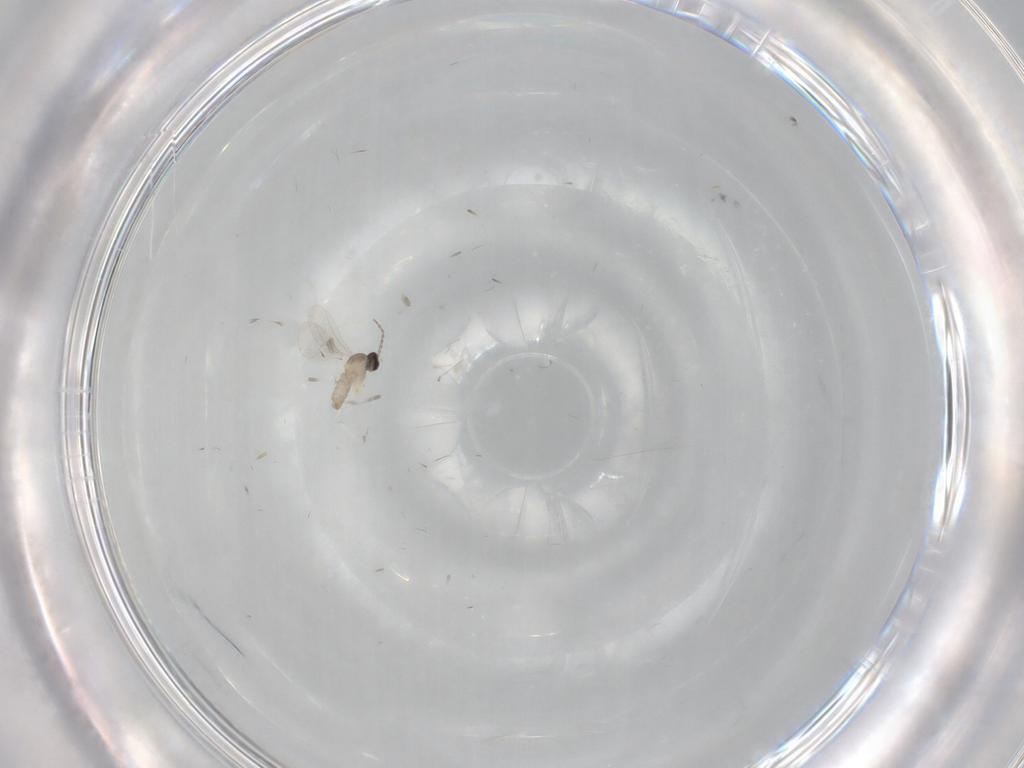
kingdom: Animalia
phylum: Arthropoda
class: Insecta
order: Diptera
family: Cecidomyiidae
